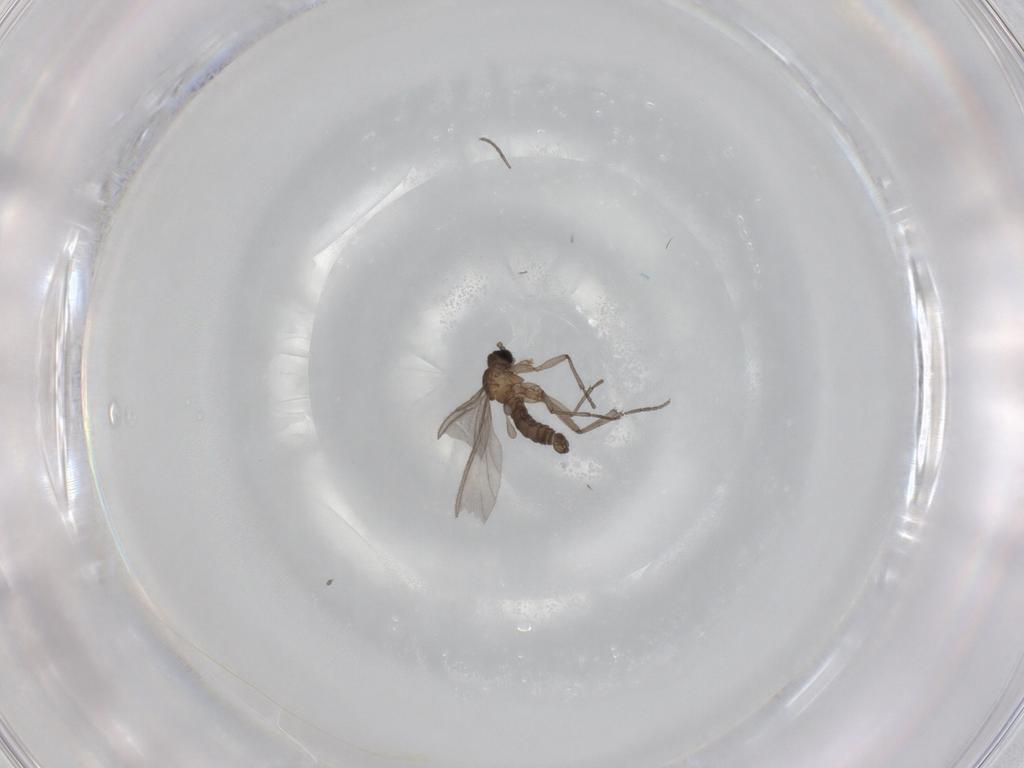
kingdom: Animalia
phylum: Arthropoda
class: Insecta
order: Diptera
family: Sciaridae
